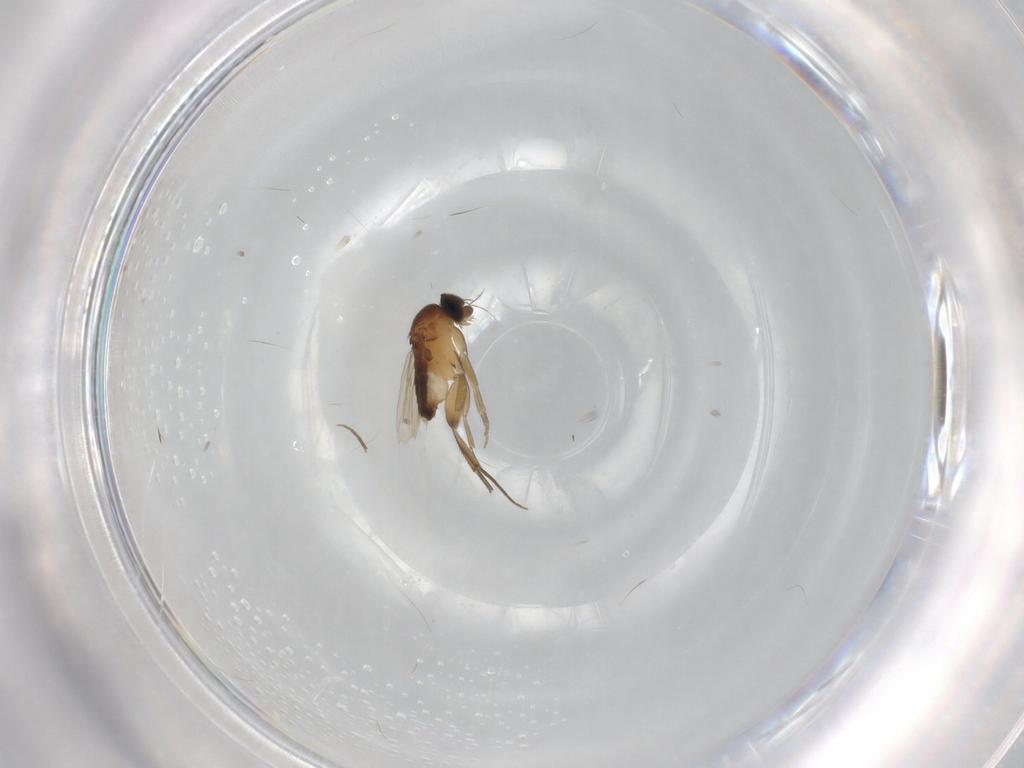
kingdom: Animalia
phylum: Arthropoda
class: Insecta
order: Diptera
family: Phoridae
